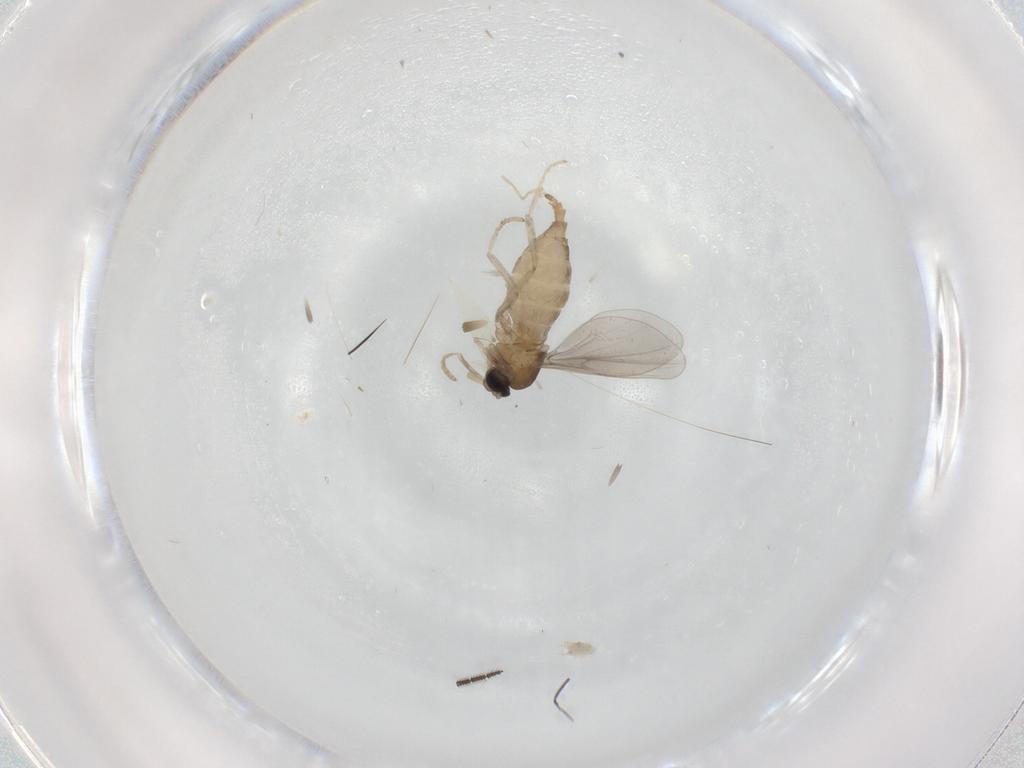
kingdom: Animalia
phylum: Arthropoda
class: Insecta
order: Diptera
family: Cecidomyiidae
